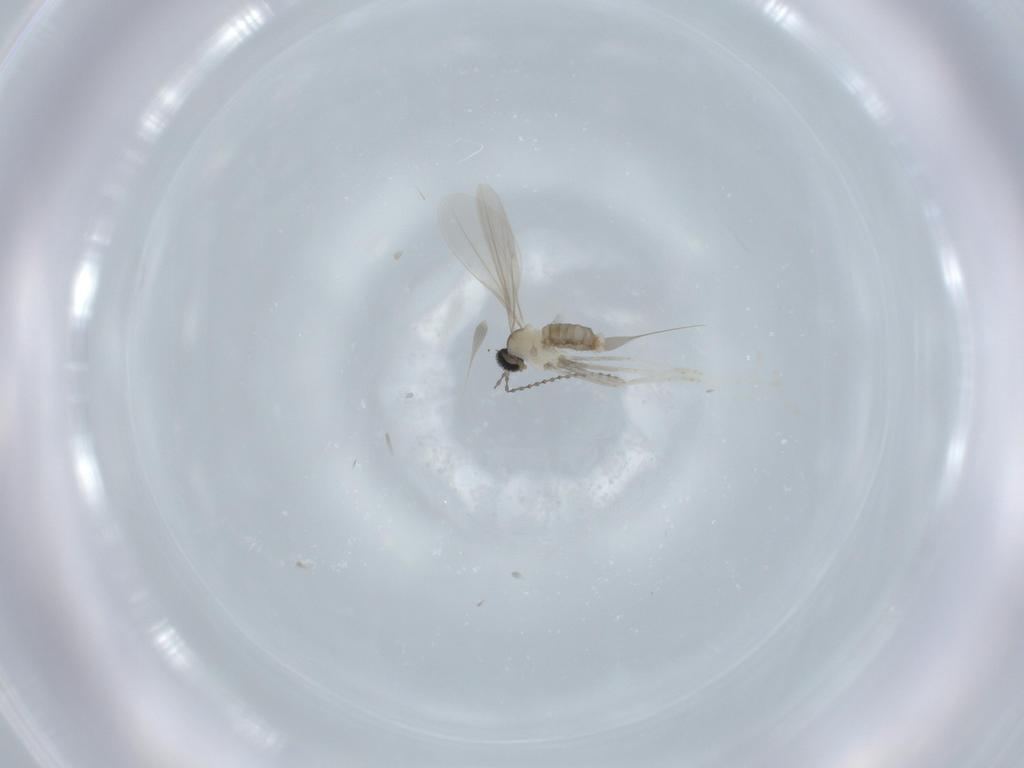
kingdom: Animalia
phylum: Arthropoda
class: Insecta
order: Diptera
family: Cecidomyiidae
